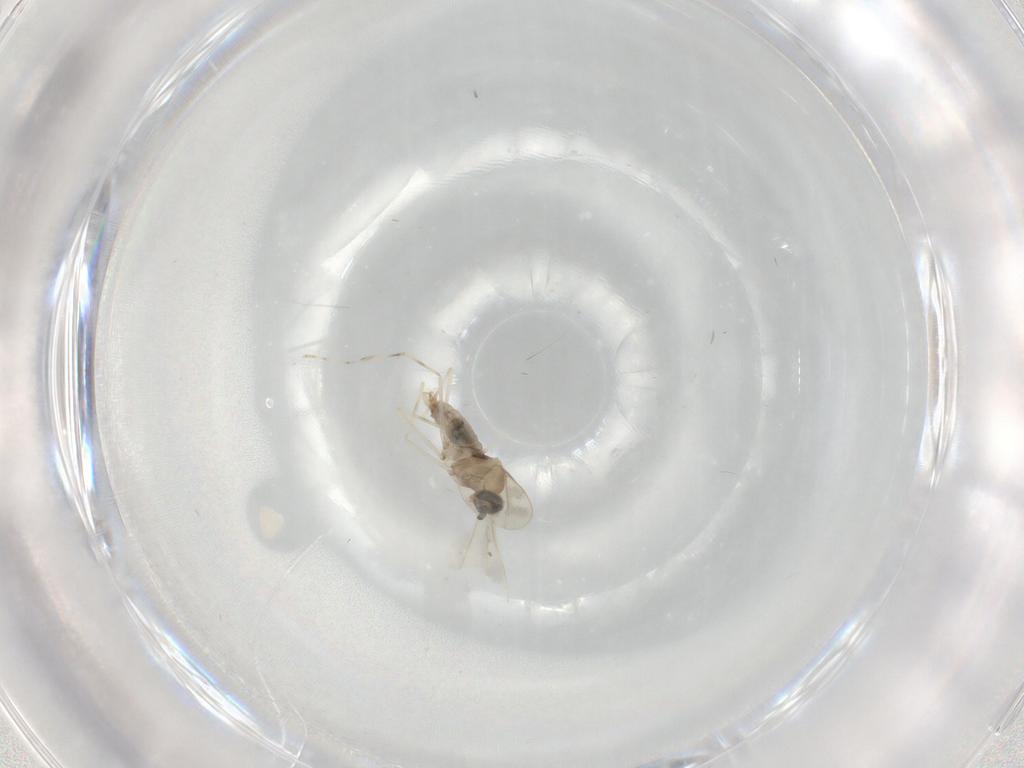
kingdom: Animalia
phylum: Arthropoda
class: Insecta
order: Diptera
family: Cecidomyiidae
